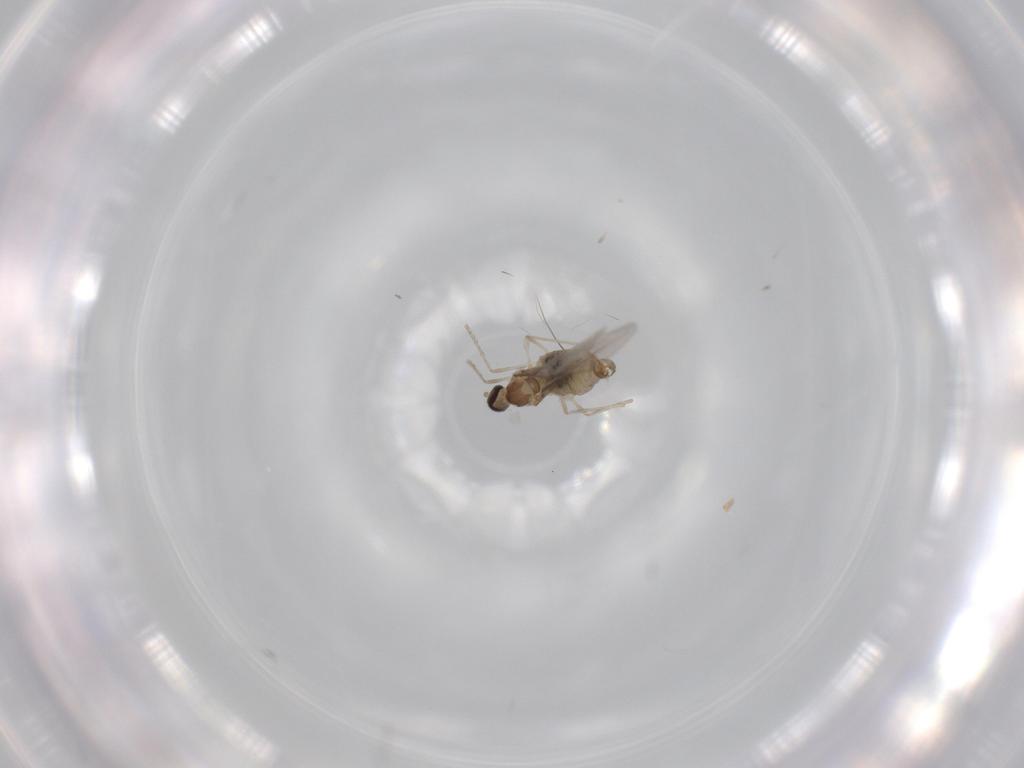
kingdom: Animalia
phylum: Arthropoda
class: Insecta
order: Diptera
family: Cecidomyiidae
